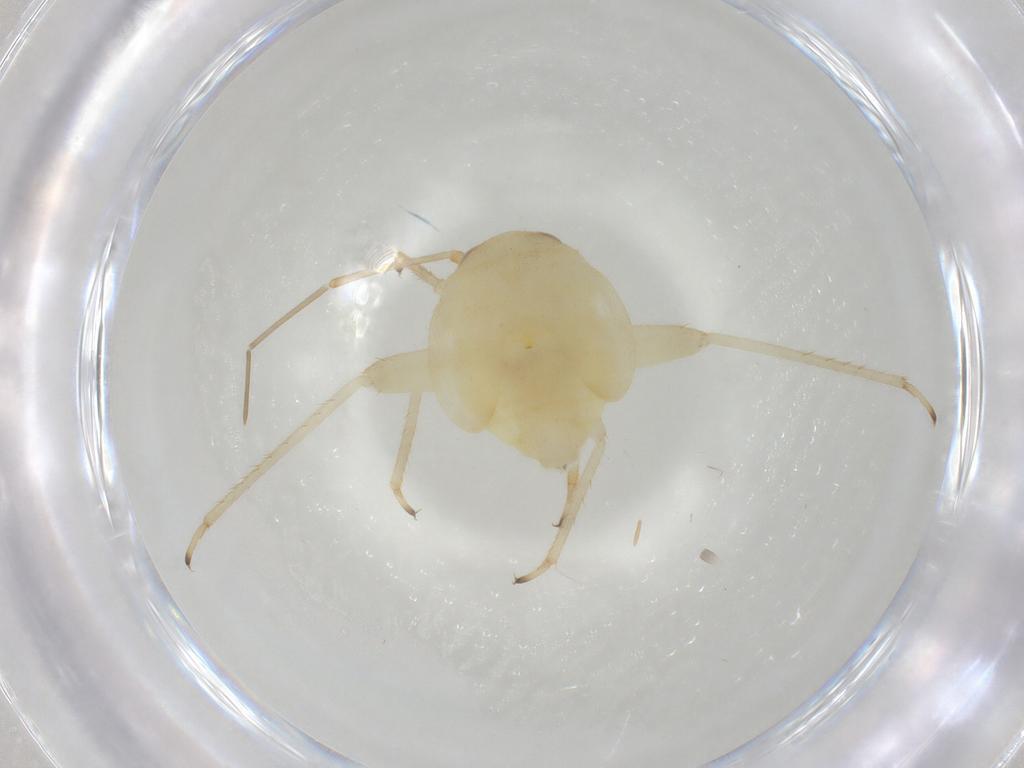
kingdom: Animalia
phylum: Arthropoda
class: Insecta
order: Hemiptera
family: Miridae
